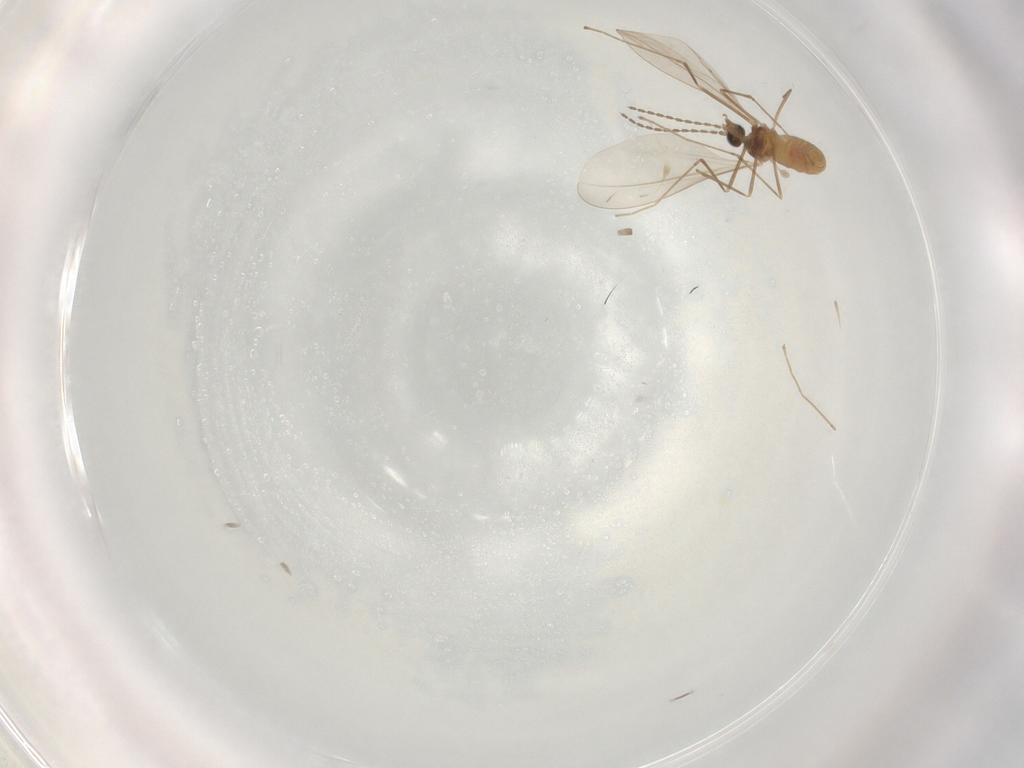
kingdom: Animalia
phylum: Arthropoda
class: Insecta
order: Diptera
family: Cecidomyiidae
